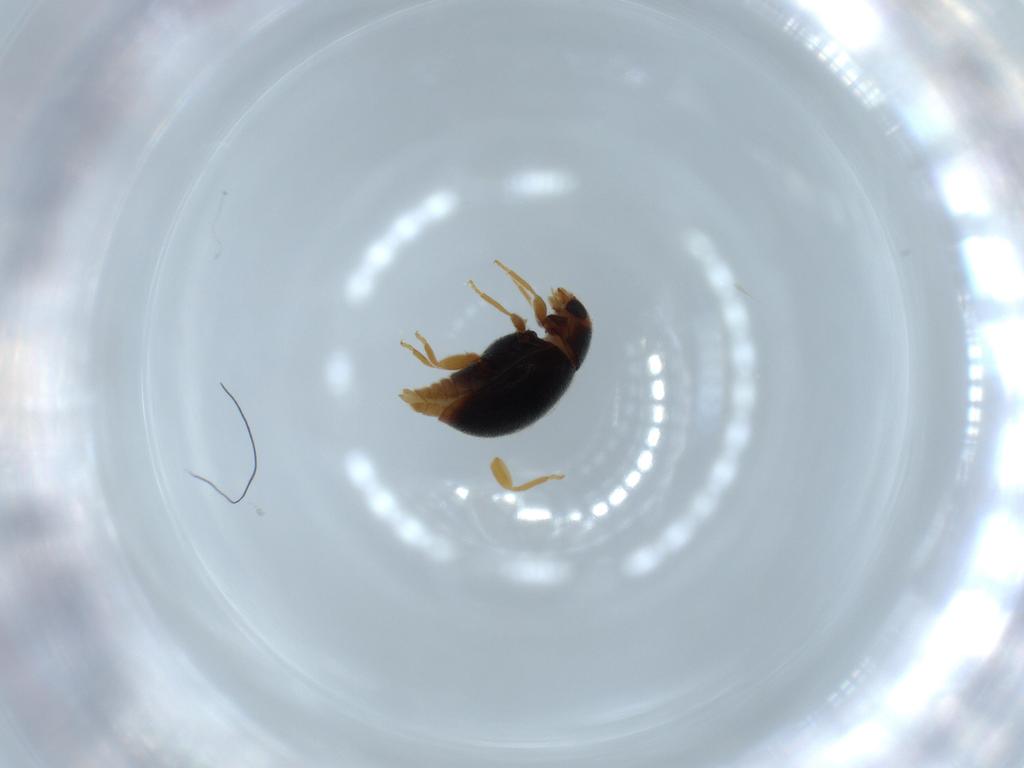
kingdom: Animalia
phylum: Arthropoda
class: Insecta
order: Coleoptera
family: Coccinellidae
